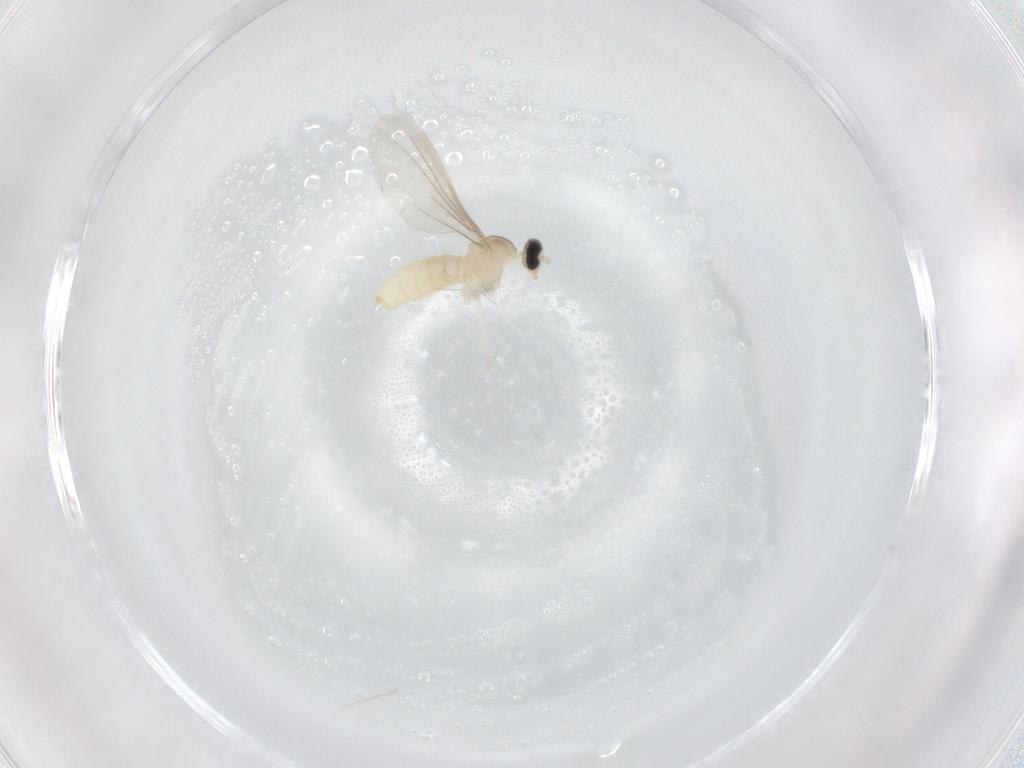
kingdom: Animalia
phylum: Arthropoda
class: Insecta
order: Diptera
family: Cecidomyiidae
